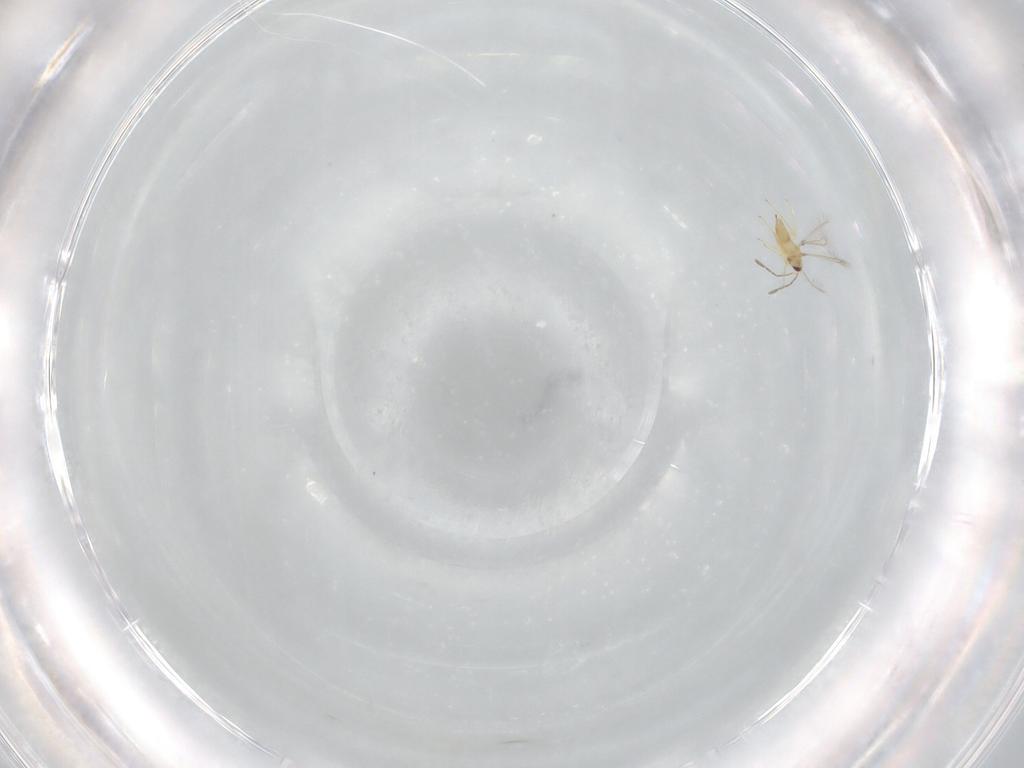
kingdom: Animalia
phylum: Arthropoda
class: Insecta
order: Hymenoptera
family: Mymaridae
